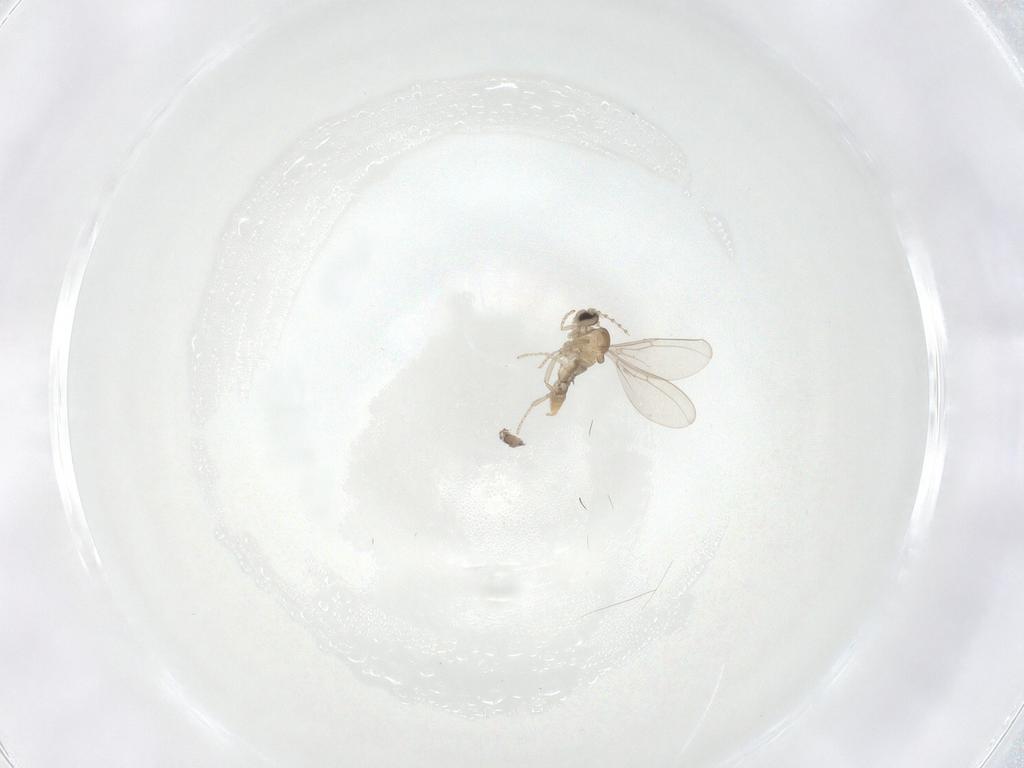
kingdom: Animalia
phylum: Arthropoda
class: Insecta
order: Diptera
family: Chironomidae
